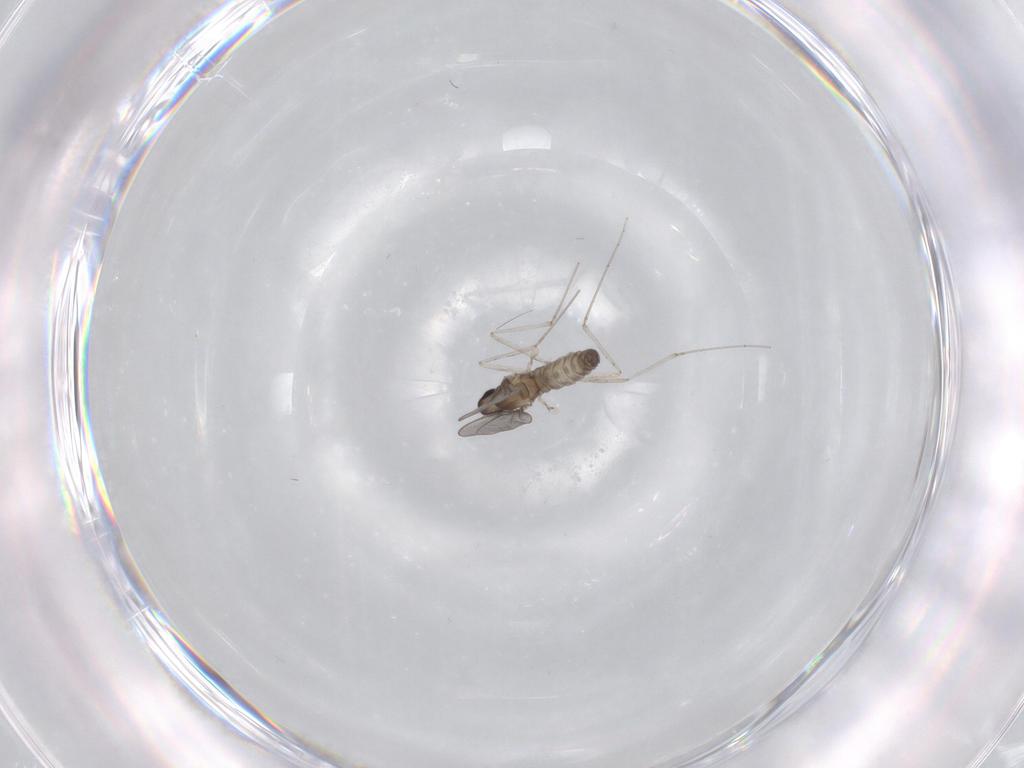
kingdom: Animalia
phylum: Arthropoda
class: Insecta
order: Diptera
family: Cecidomyiidae
